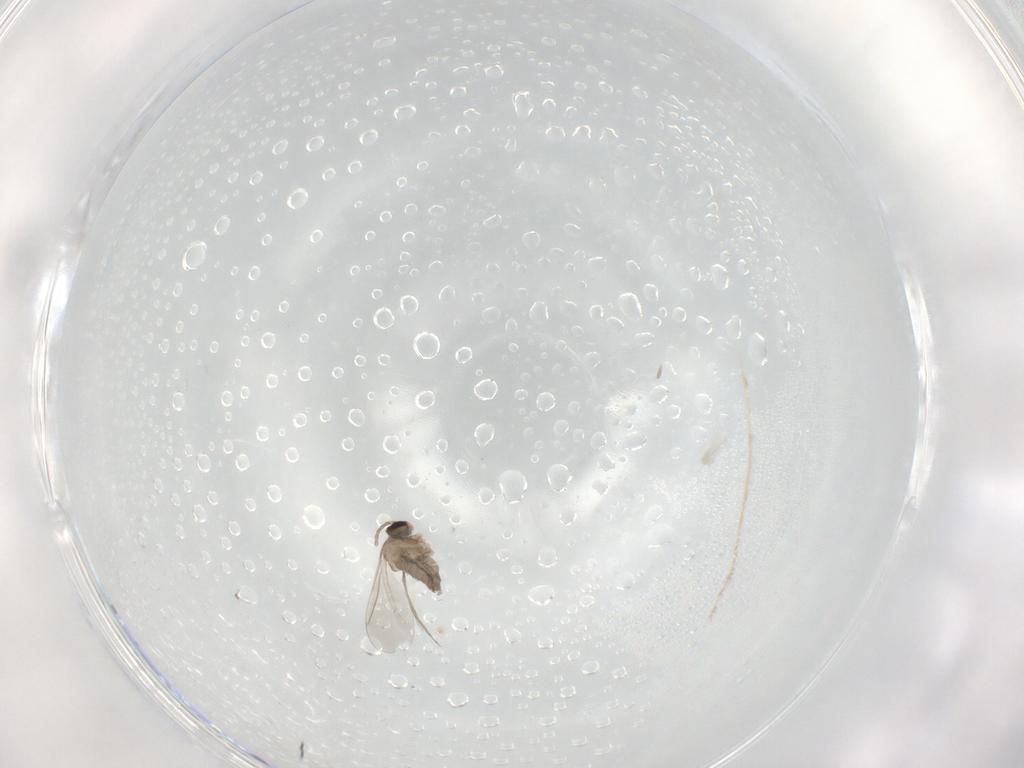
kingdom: Animalia
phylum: Arthropoda
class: Insecta
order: Diptera
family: Cecidomyiidae
